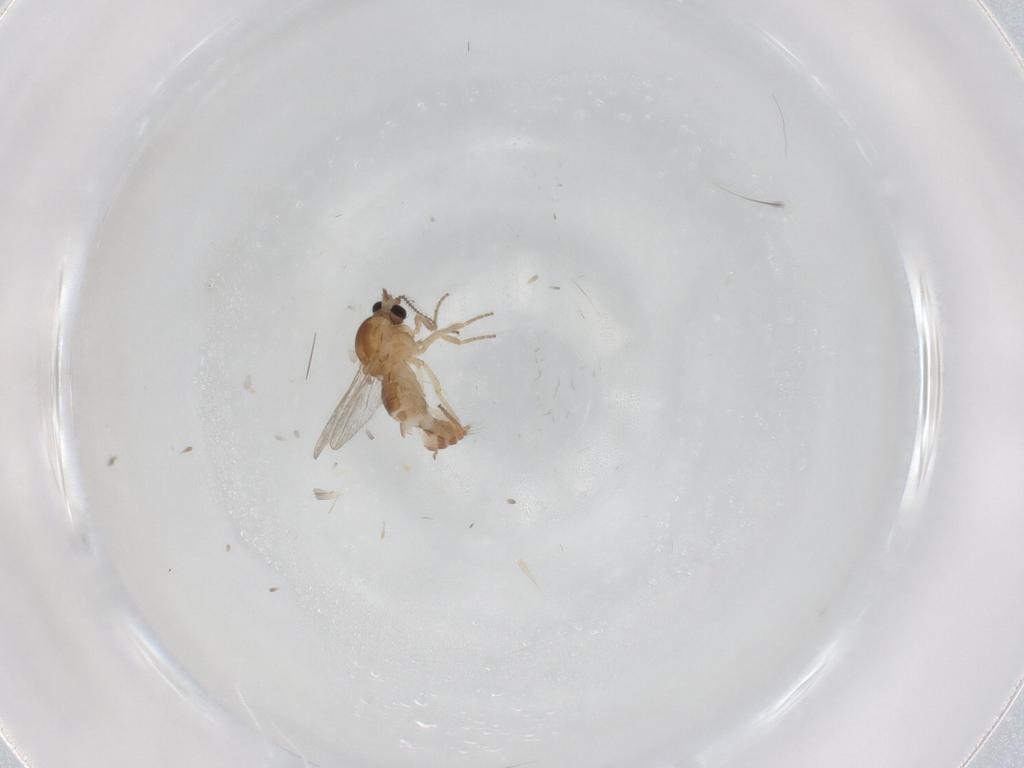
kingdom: Animalia
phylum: Arthropoda
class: Insecta
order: Diptera
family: Ceratopogonidae
